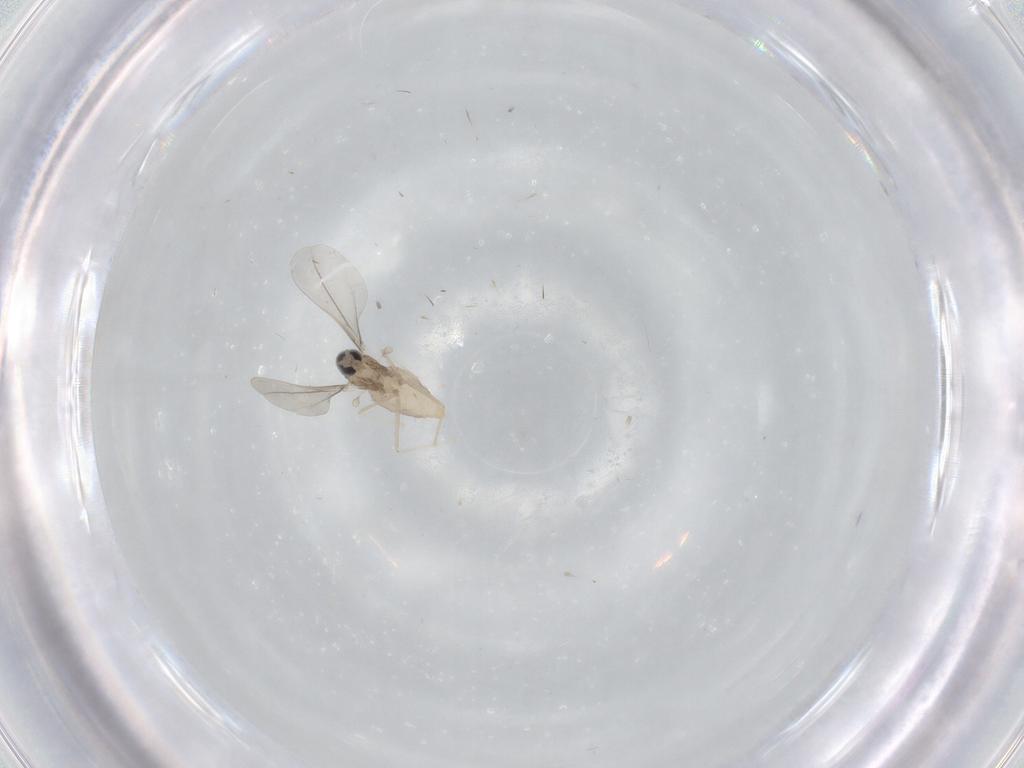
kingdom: Animalia
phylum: Arthropoda
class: Insecta
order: Diptera
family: Cecidomyiidae
